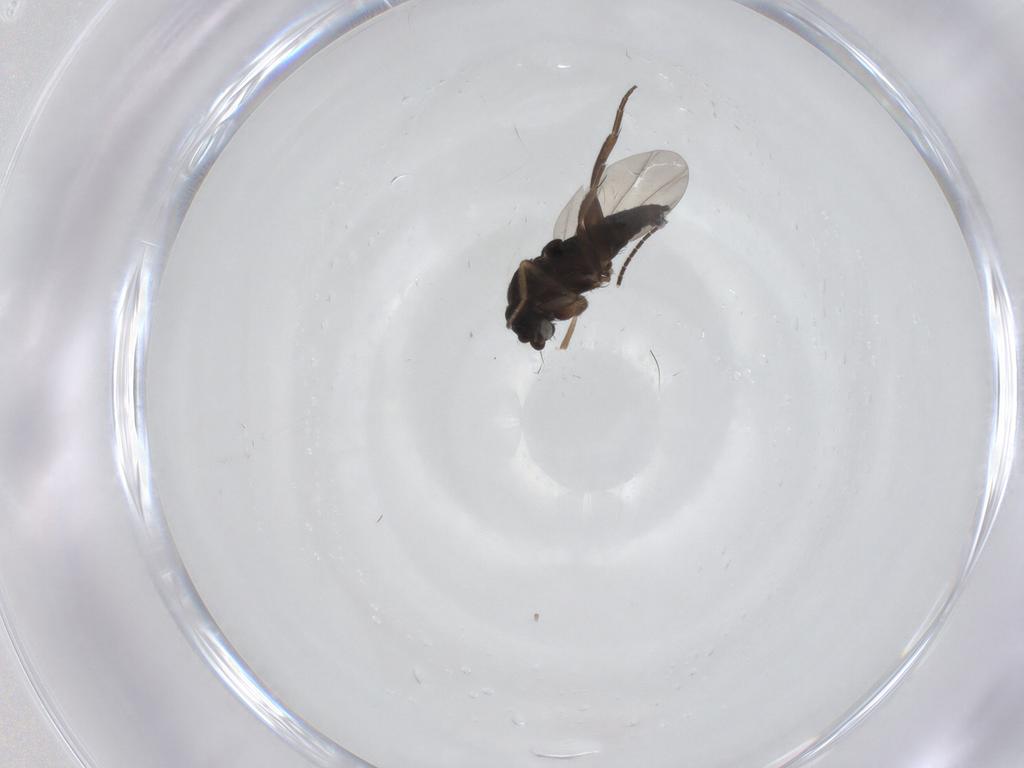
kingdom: Animalia
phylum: Arthropoda
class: Insecta
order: Diptera
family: Phoridae
